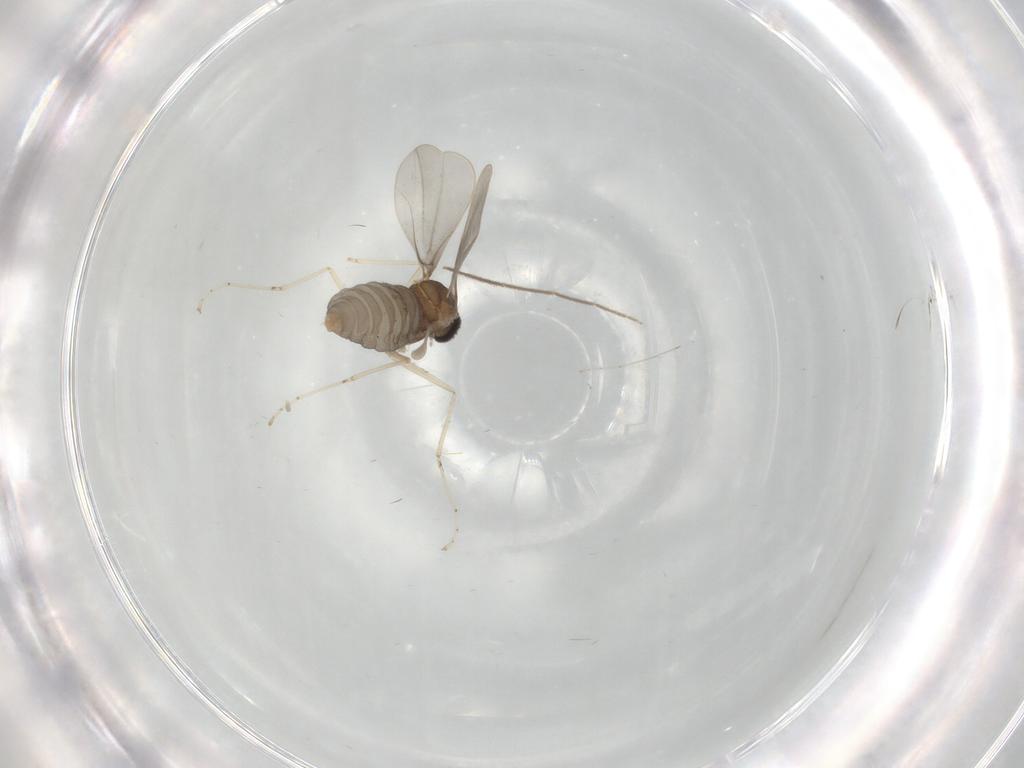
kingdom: Animalia
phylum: Arthropoda
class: Insecta
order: Diptera
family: Cecidomyiidae
